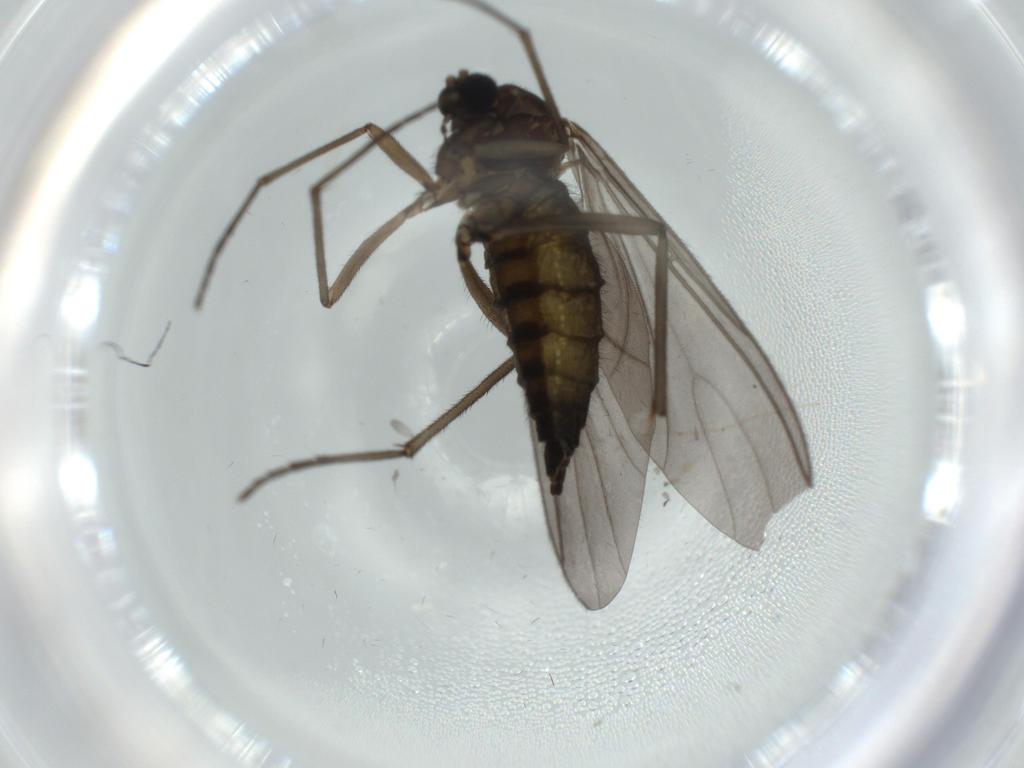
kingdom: Animalia
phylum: Arthropoda
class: Insecta
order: Diptera
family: Sciaridae
